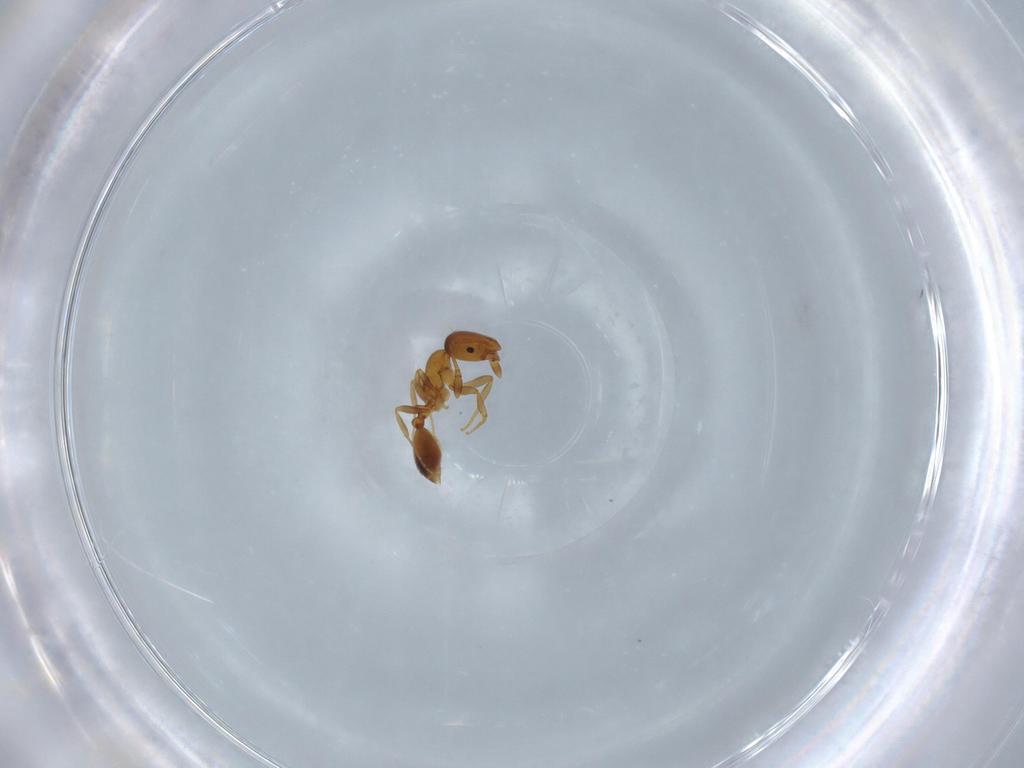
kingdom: Animalia
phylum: Arthropoda
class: Insecta
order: Hymenoptera
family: Formicidae
